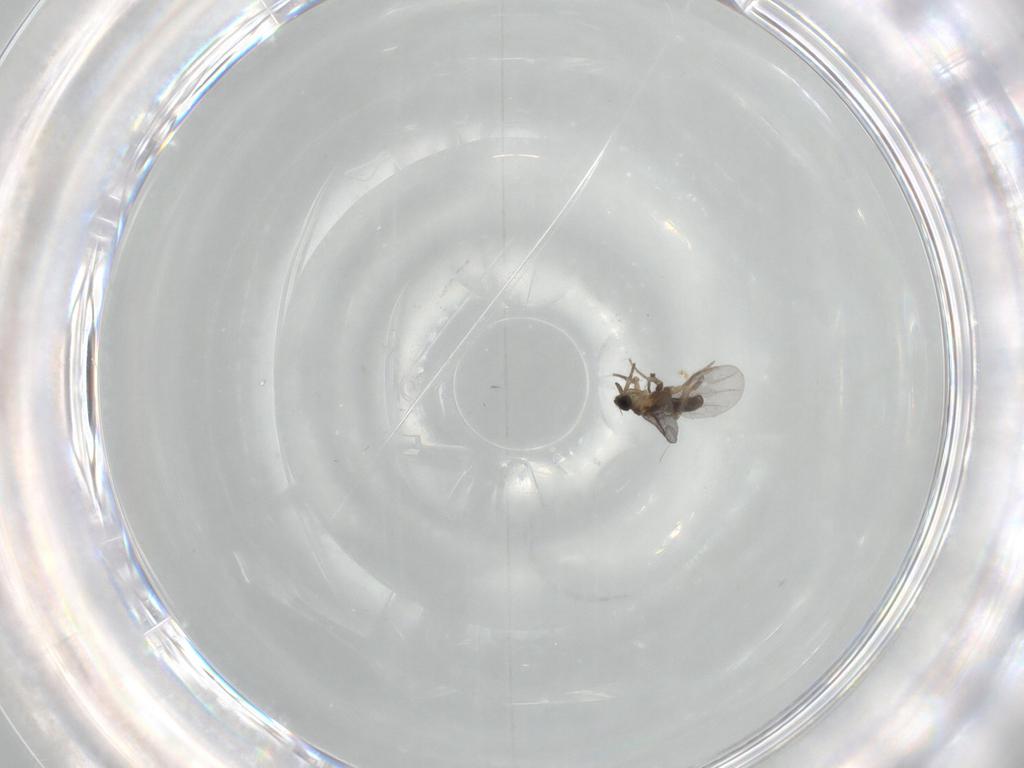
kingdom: Animalia
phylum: Arthropoda
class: Insecta
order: Diptera
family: Chironomidae
